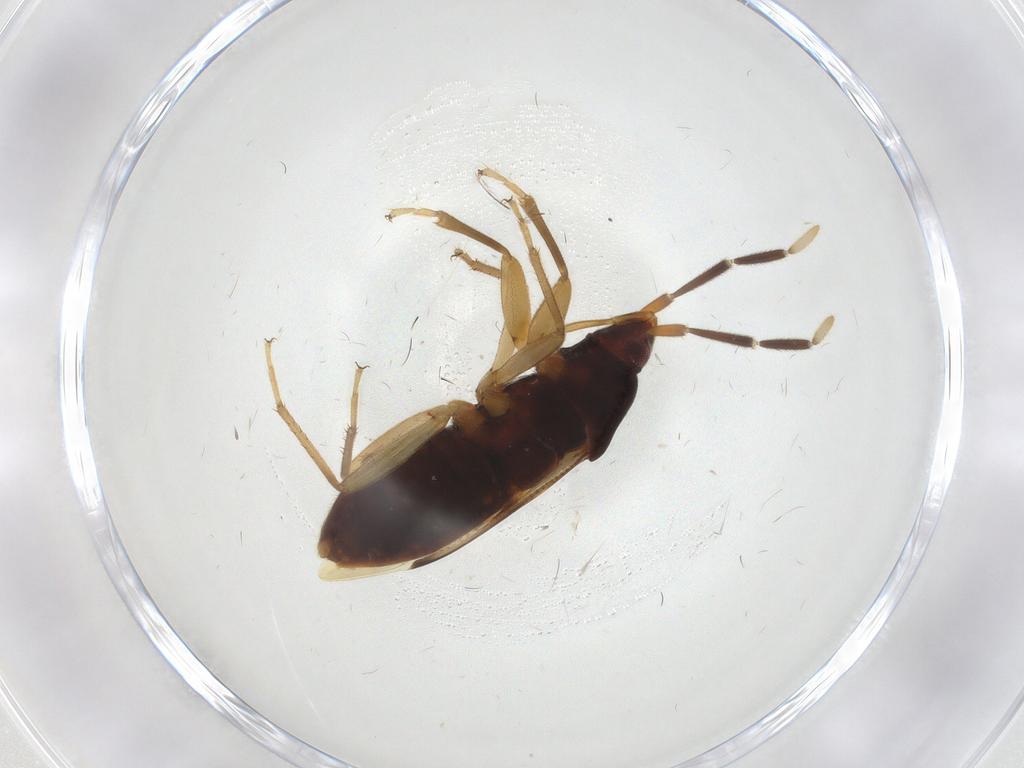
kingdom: Animalia
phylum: Arthropoda
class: Insecta
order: Hemiptera
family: Rhyparochromidae
